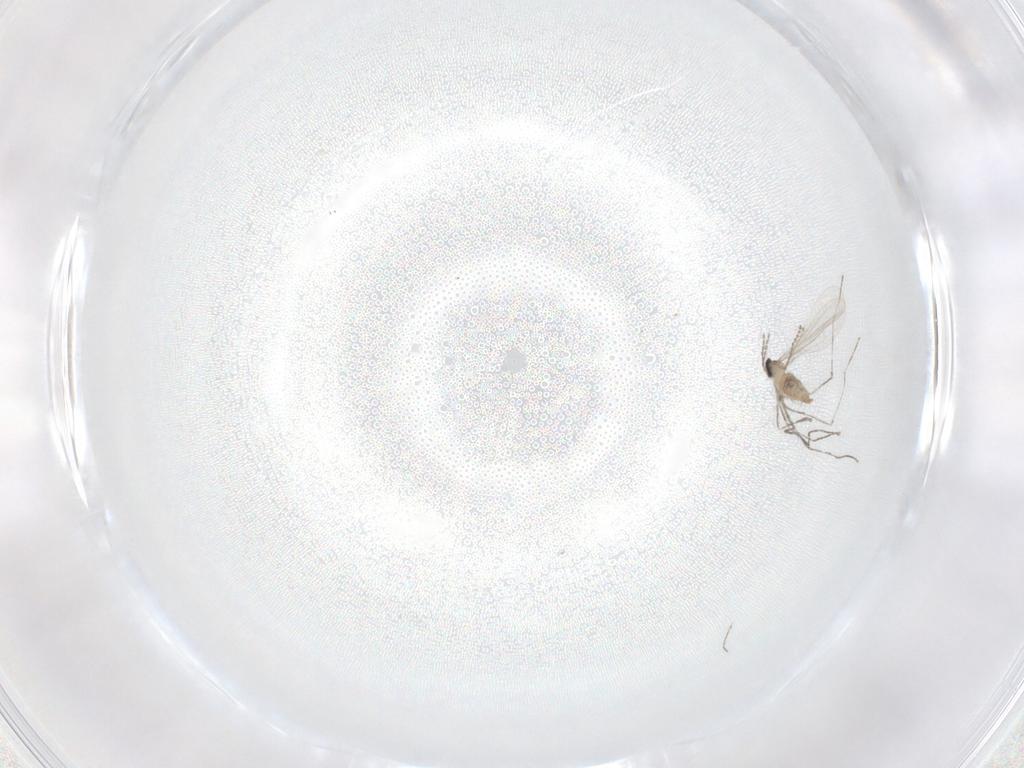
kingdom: Animalia
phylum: Arthropoda
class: Insecta
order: Diptera
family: Cecidomyiidae
